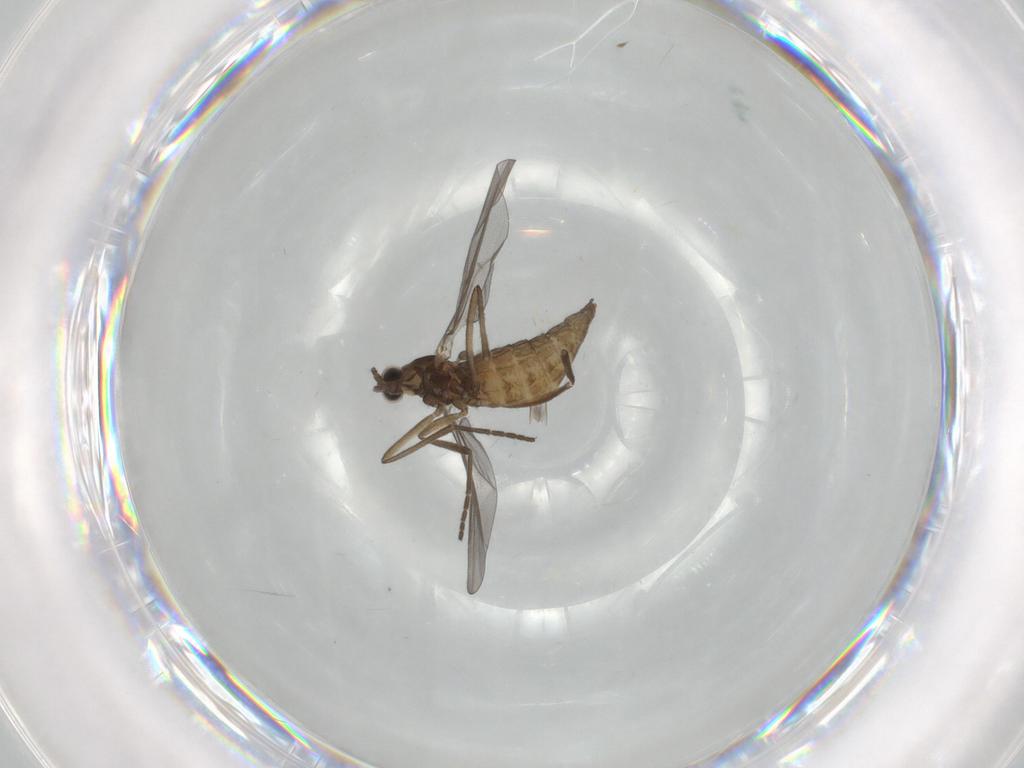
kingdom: Animalia
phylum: Arthropoda
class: Insecta
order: Diptera
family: Cecidomyiidae
